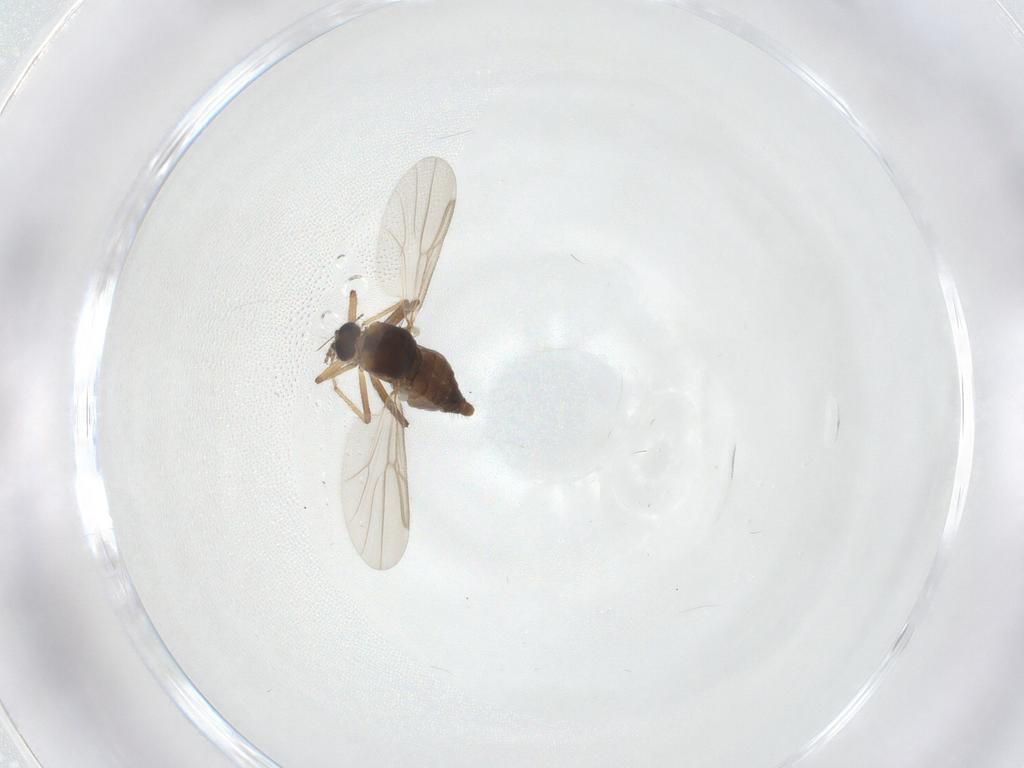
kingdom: Animalia
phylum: Arthropoda
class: Insecta
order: Diptera
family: Ceratopogonidae
